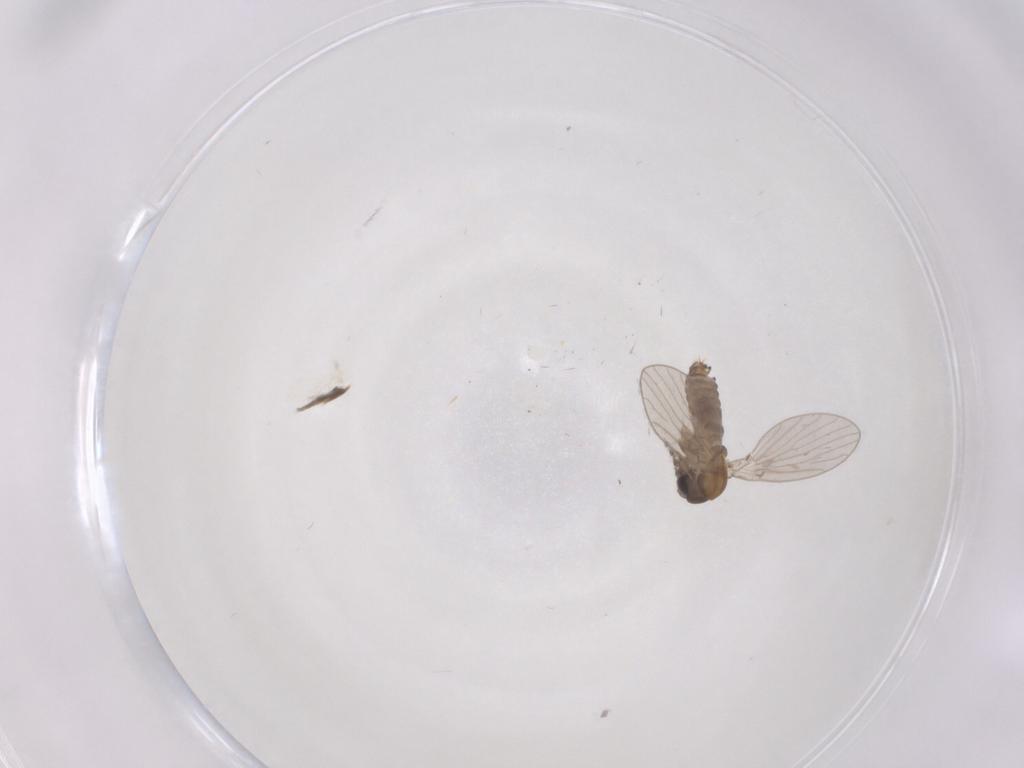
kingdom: Animalia
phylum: Arthropoda
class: Insecta
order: Diptera
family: Psychodidae
